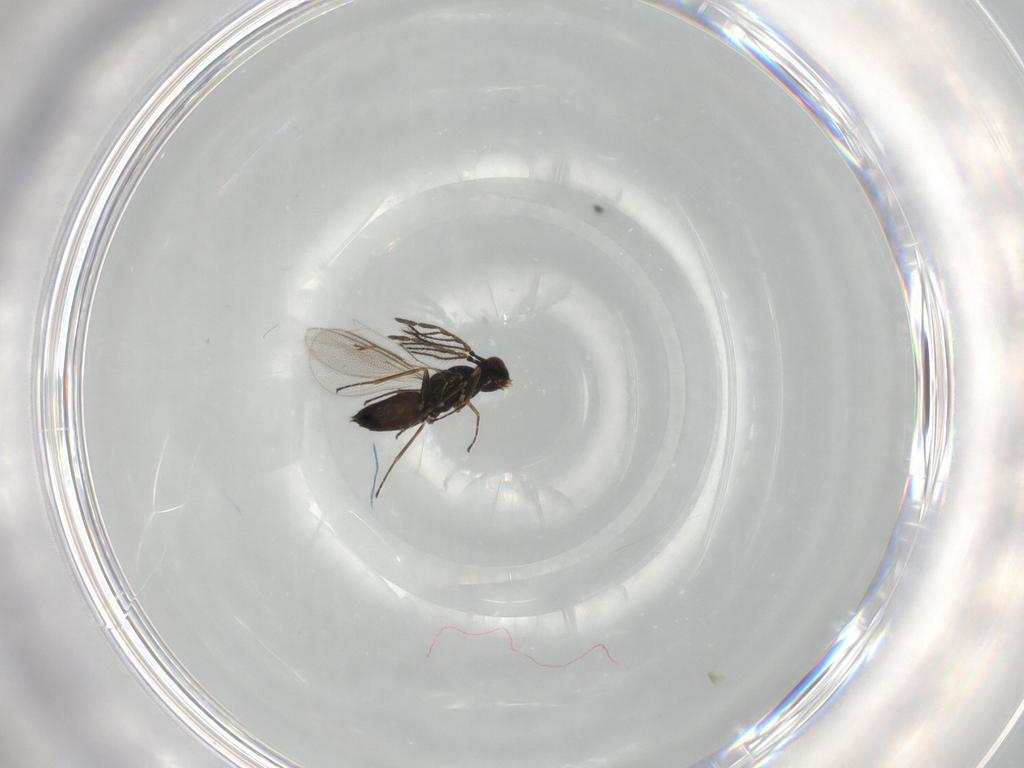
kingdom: Animalia
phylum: Arthropoda
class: Insecta
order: Hymenoptera
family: Eulophidae
